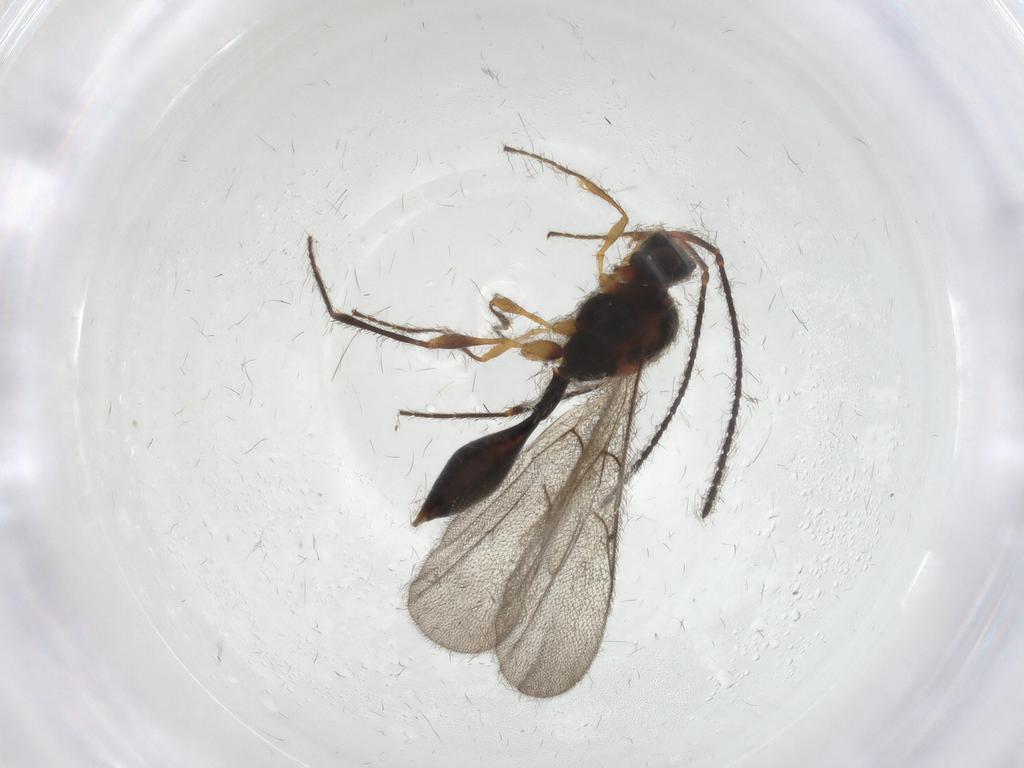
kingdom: Animalia
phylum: Arthropoda
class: Insecta
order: Hymenoptera
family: Diapriidae
